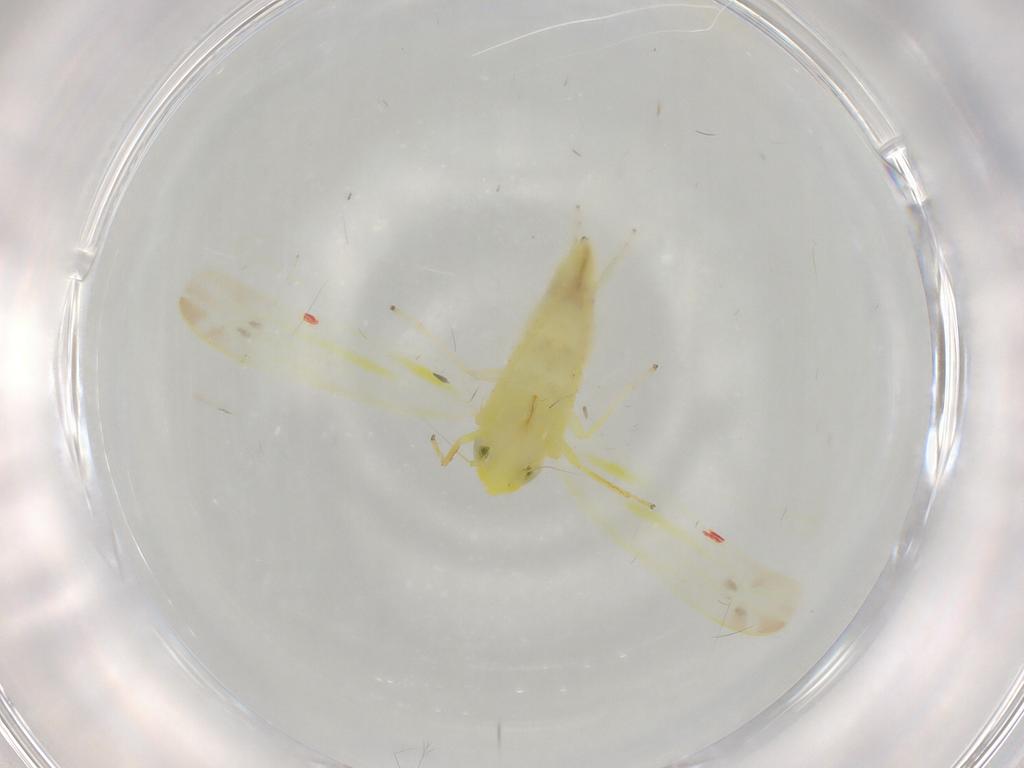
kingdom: Animalia
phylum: Arthropoda
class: Insecta
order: Hemiptera
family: Cicadellidae
